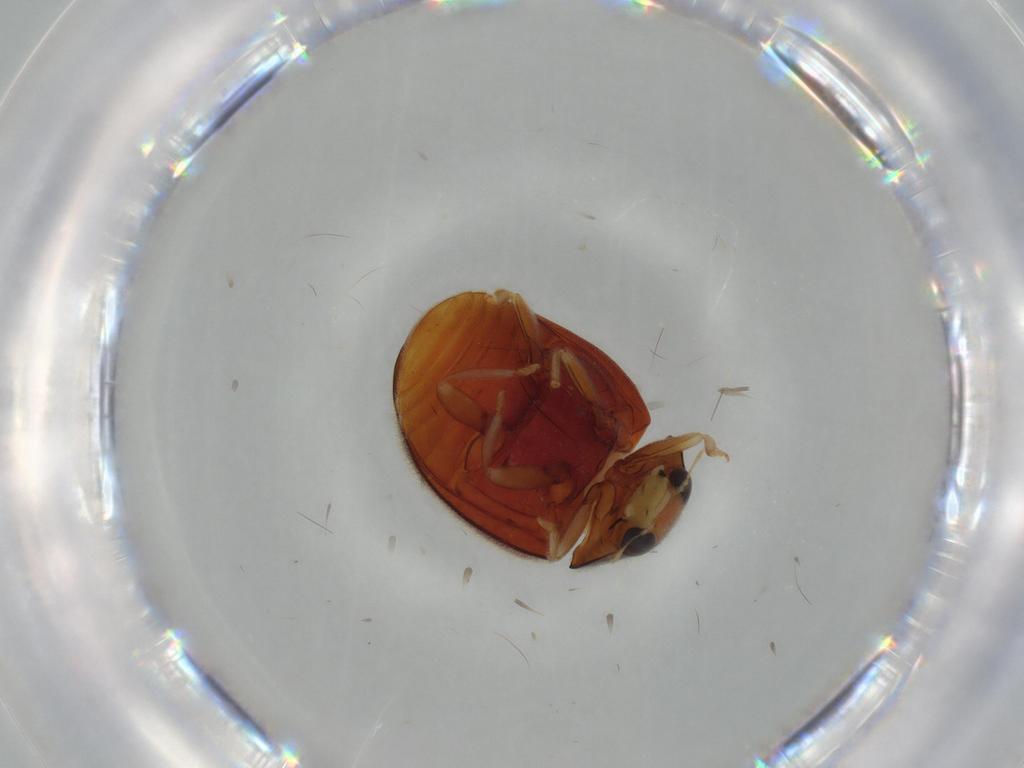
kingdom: Animalia
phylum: Arthropoda
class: Insecta
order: Coleoptera
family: Coccinellidae
